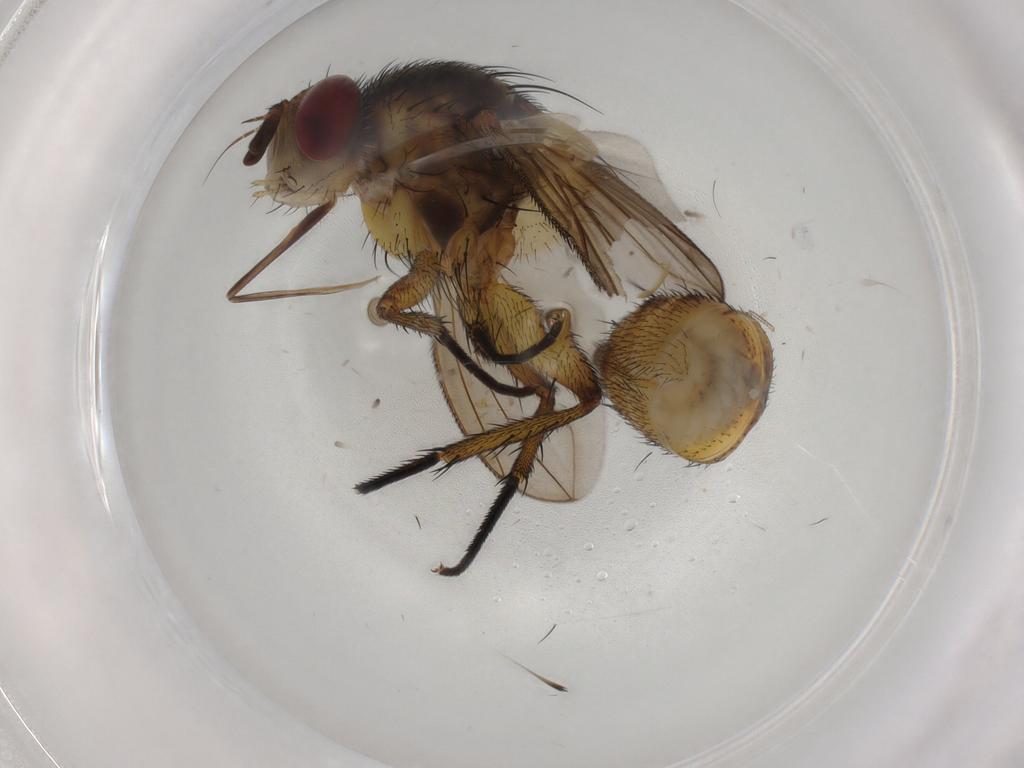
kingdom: Animalia
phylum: Arthropoda
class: Insecta
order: Diptera
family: Tachinidae
